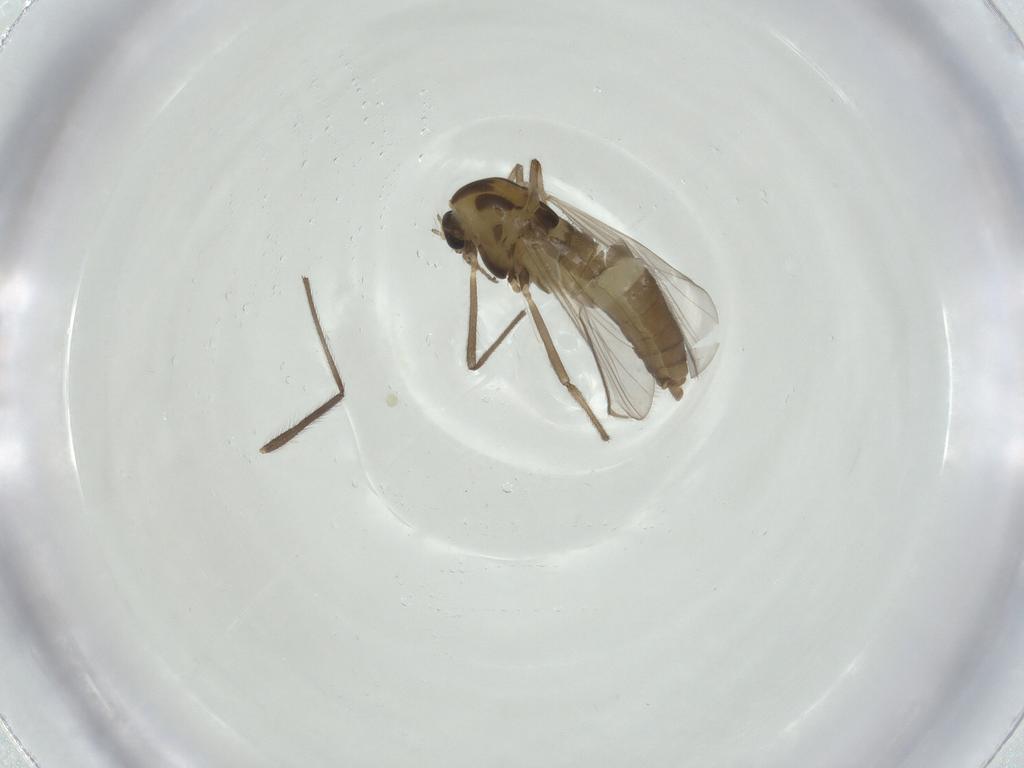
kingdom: Animalia
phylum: Arthropoda
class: Insecta
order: Diptera
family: Chironomidae
